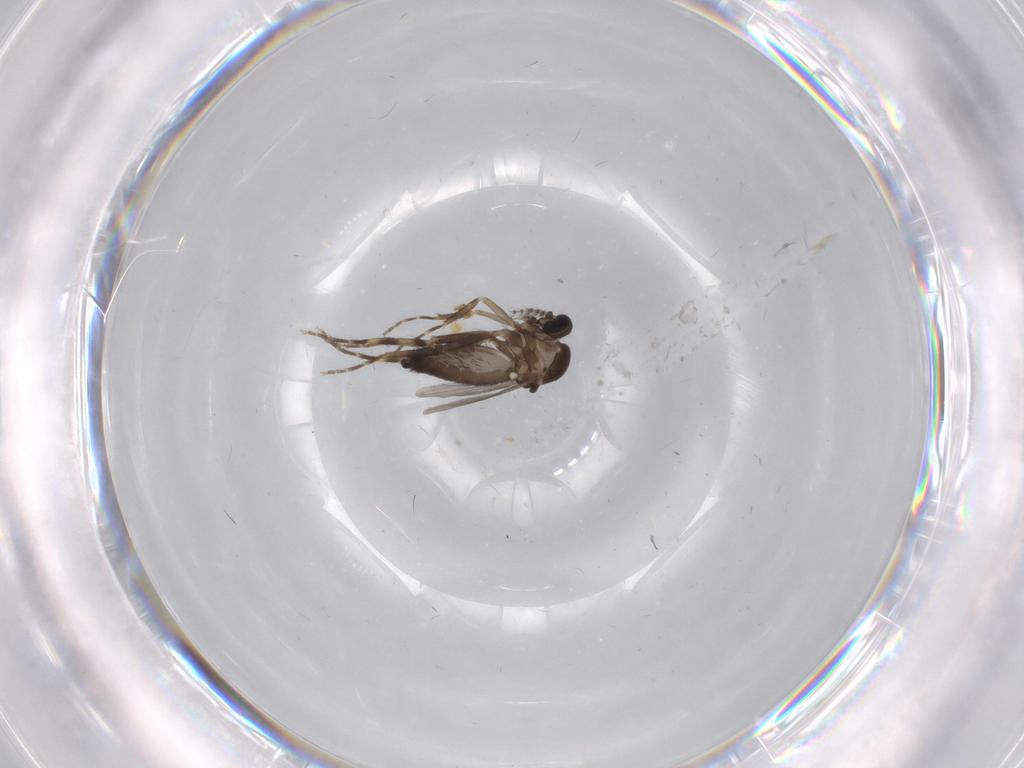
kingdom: Animalia
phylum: Arthropoda
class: Insecta
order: Diptera
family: Ceratopogonidae
